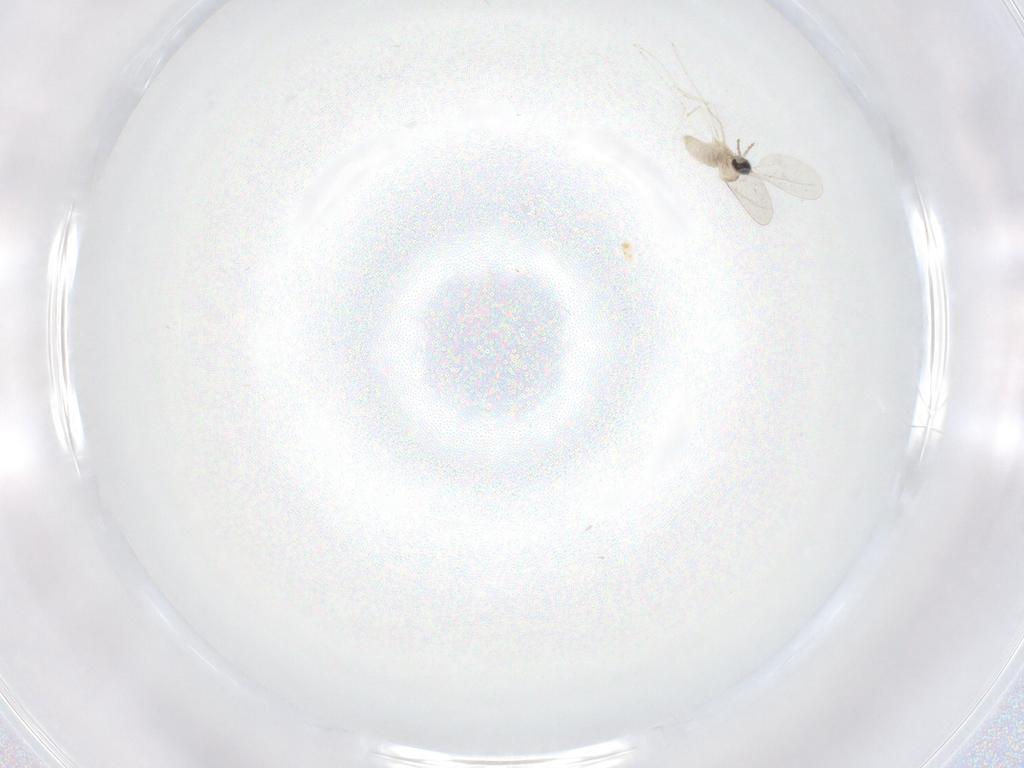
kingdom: Animalia
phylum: Arthropoda
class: Insecta
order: Diptera
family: Cecidomyiidae
